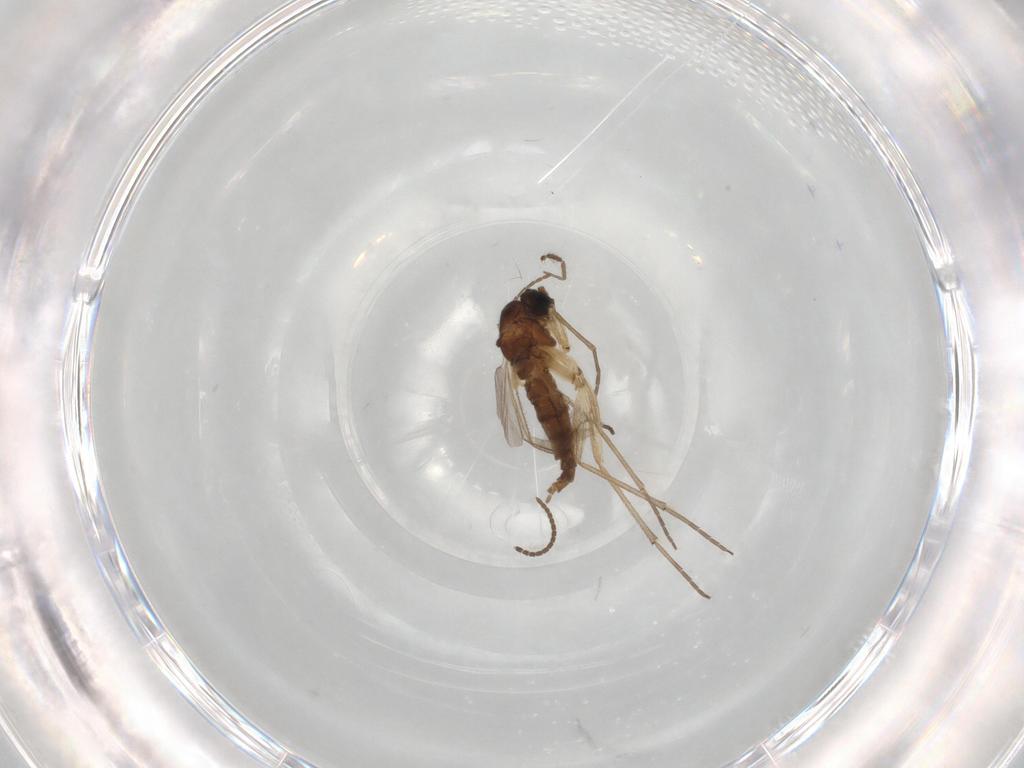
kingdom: Animalia
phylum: Arthropoda
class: Insecta
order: Diptera
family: Sciaridae
